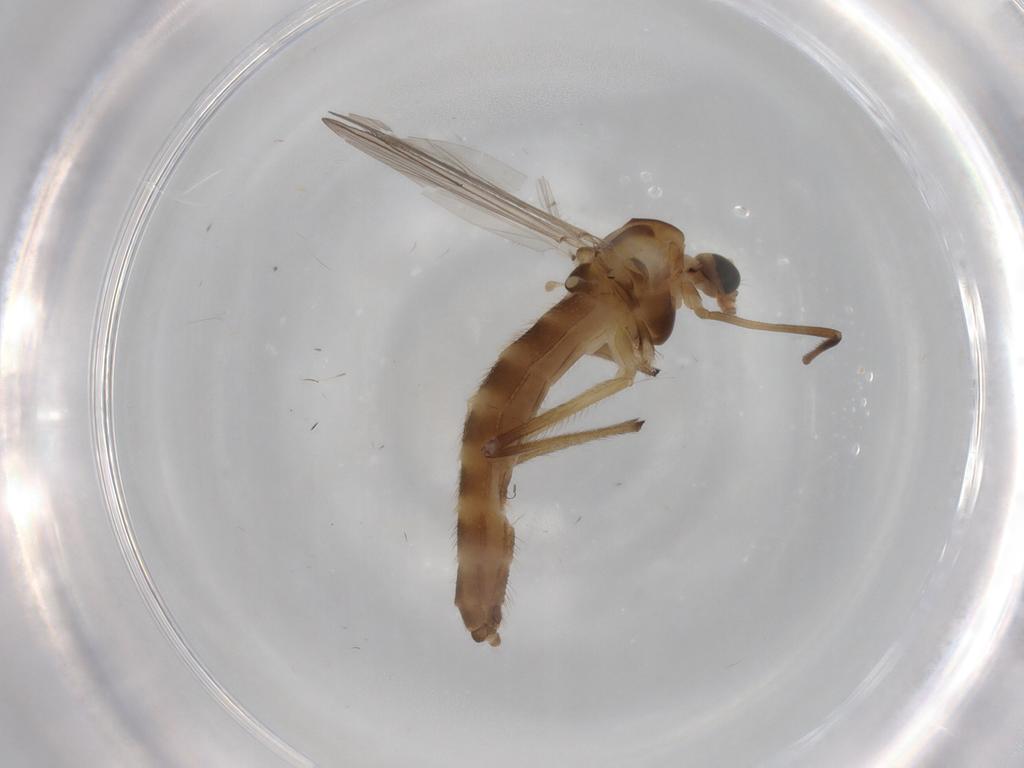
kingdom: Animalia
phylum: Arthropoda
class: Insecta
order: Diptera
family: Chironomidae
